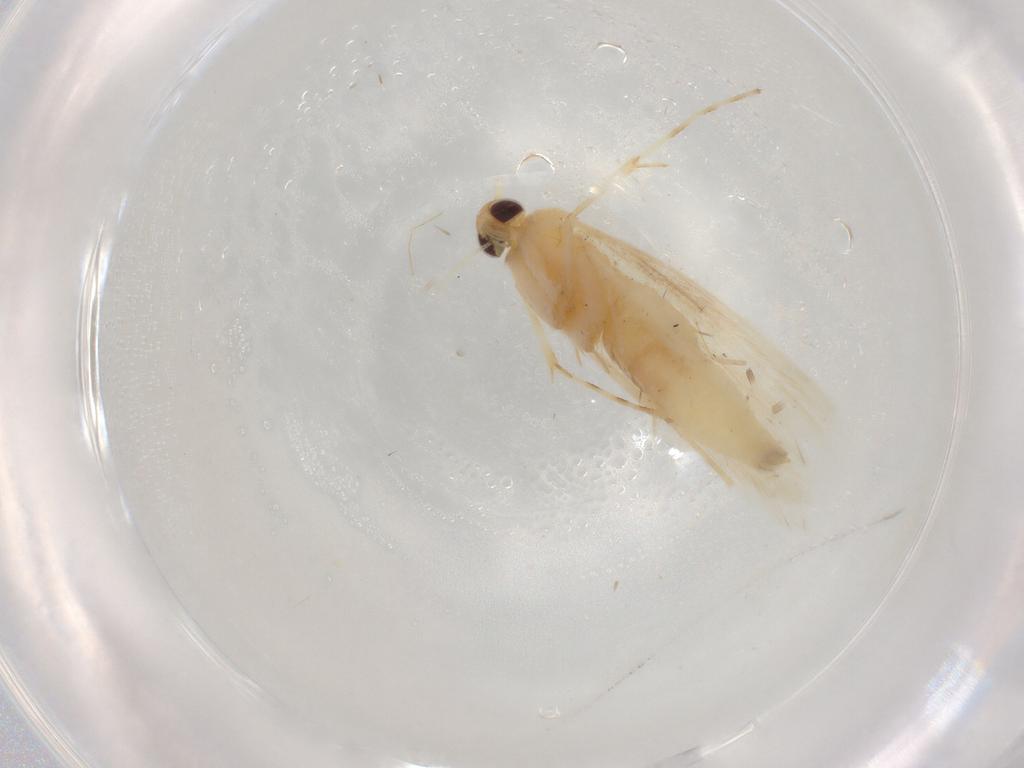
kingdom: Animalia
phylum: Arthropoda
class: Insecta
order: Lepidoptera
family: Gracillariidae
